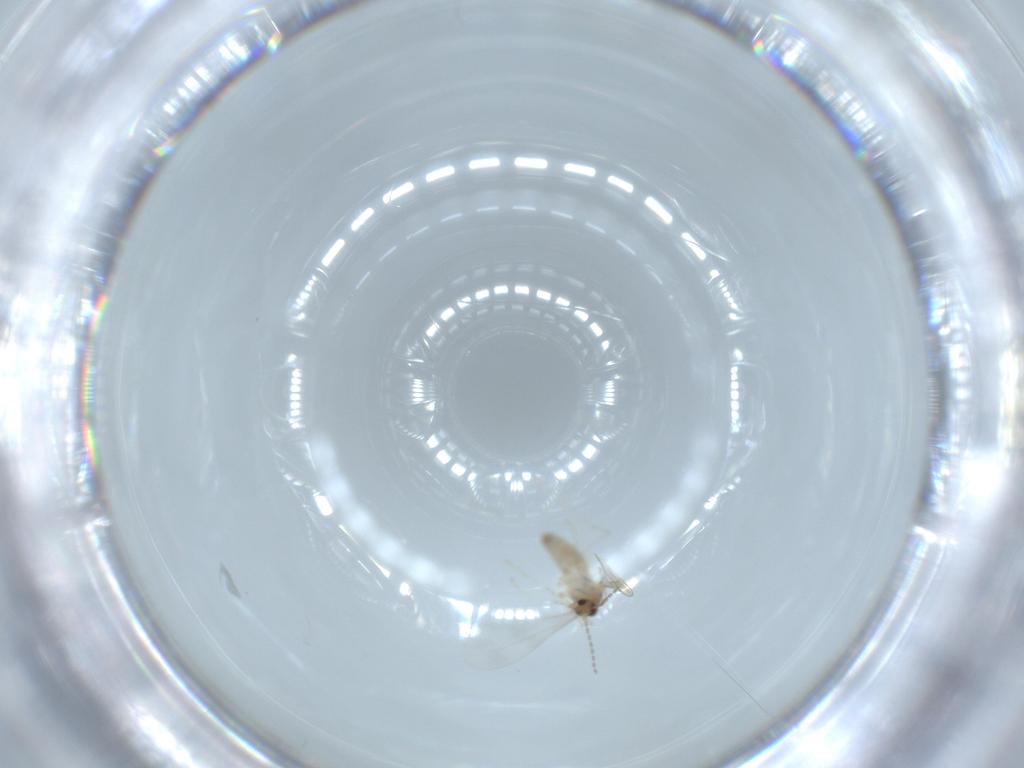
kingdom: Animalia
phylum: Arthropoda
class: Insecta
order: Diptera
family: Cecidomyiidae
